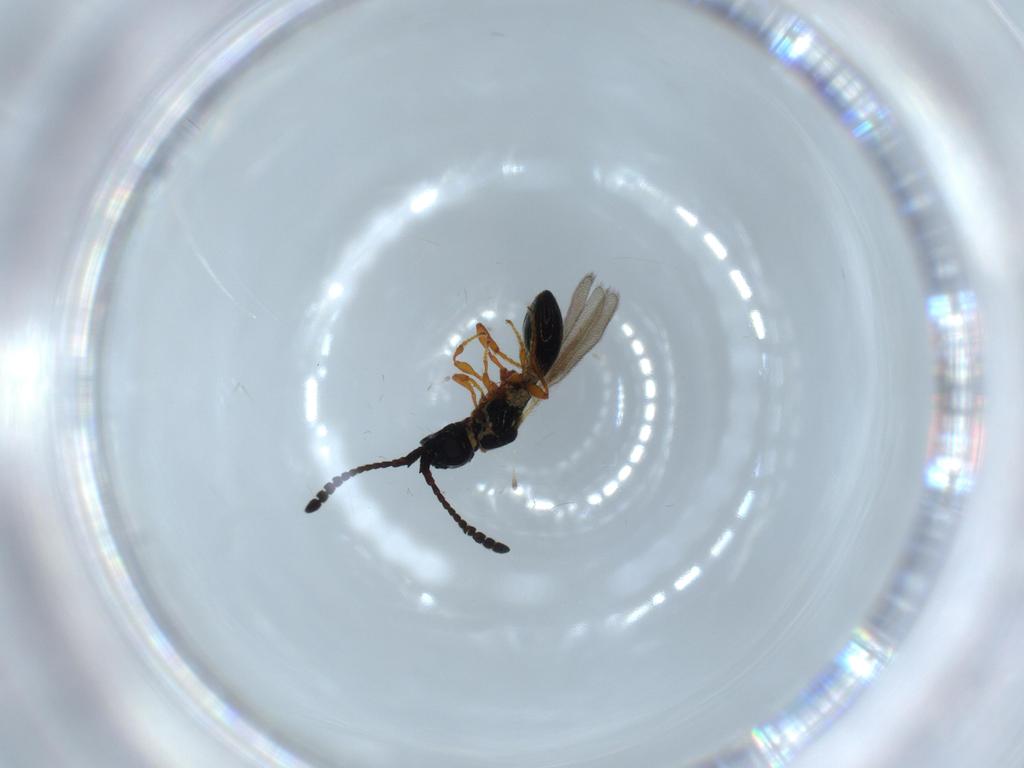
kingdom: Animalia
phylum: Arthropoda
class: Insecta
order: Hymenoptera
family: Diapriidae
